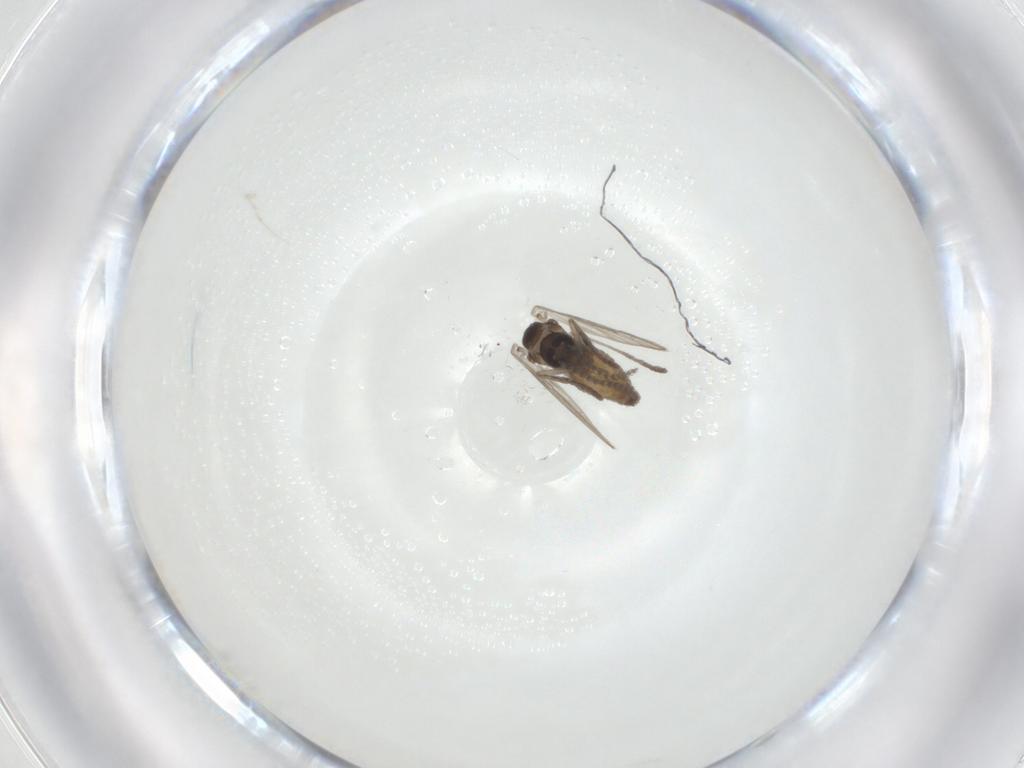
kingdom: Animalia
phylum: Arthropoda
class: Insecta
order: Diptera
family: Psychodidae
